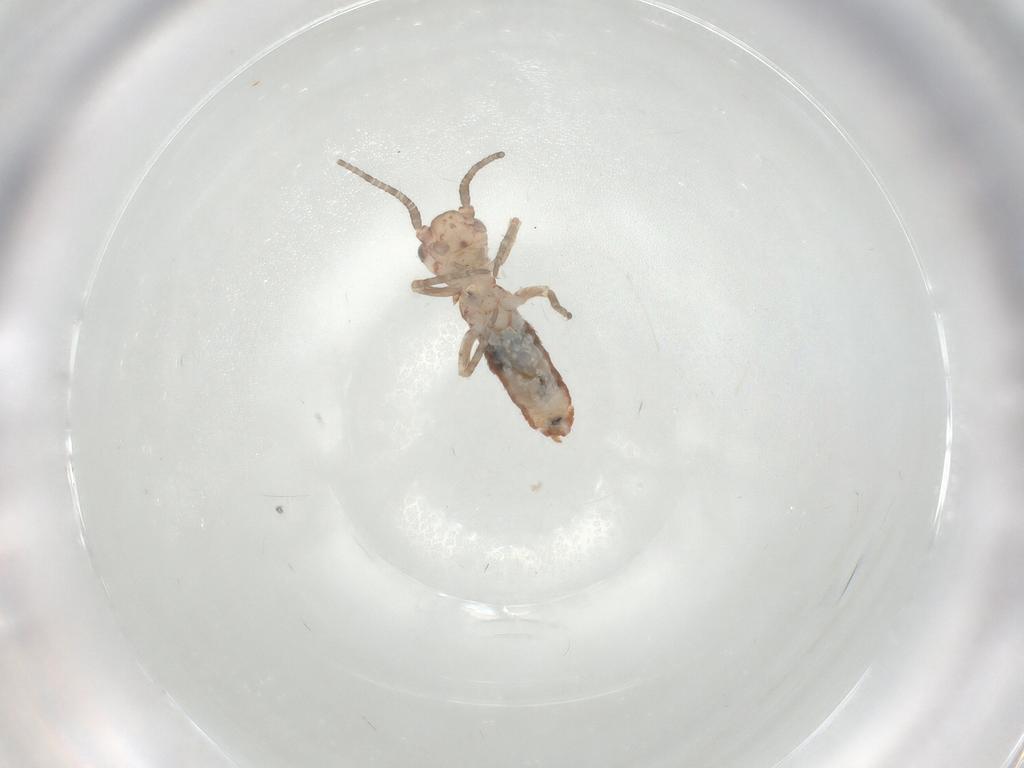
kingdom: Animalia
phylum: Arthropoda
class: Insecta
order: Orthoptera
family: Gryllidae
